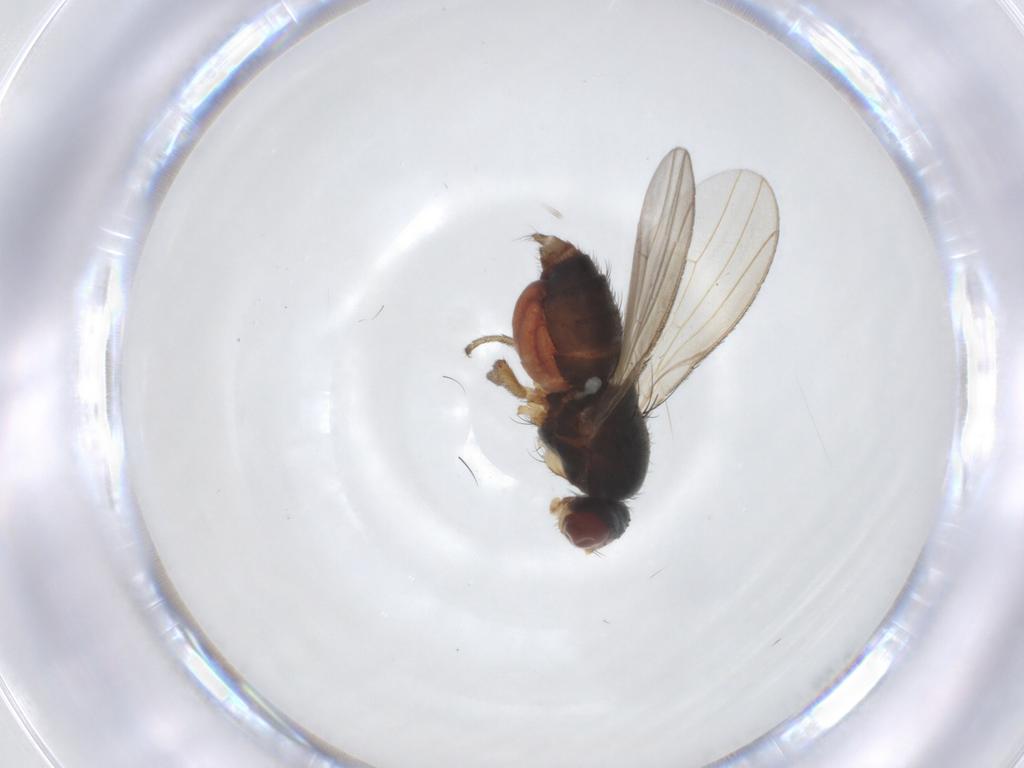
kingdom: Animalia
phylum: Arthropoda
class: Insecta
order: Diptera
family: Heleomyzidae
